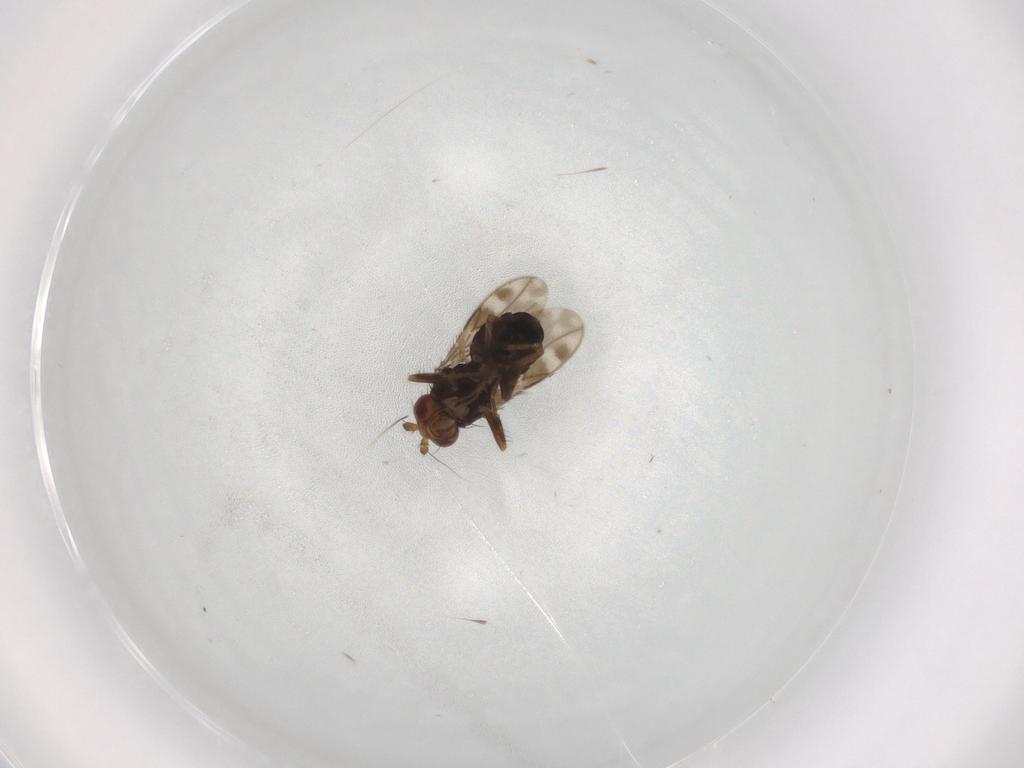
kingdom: Animalia
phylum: Arthropoda
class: Insecta
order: Diptera
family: Sphaeroceridae
